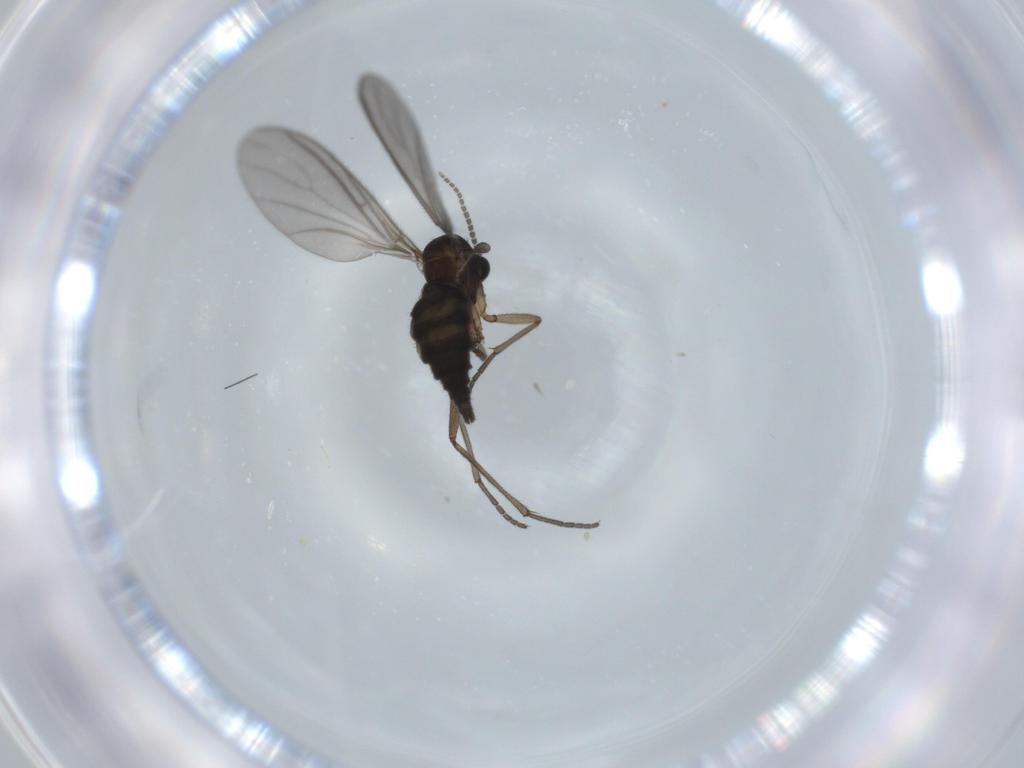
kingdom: Animalia
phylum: Arthropoda
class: Insecta
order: Diptera
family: Sciaridae
